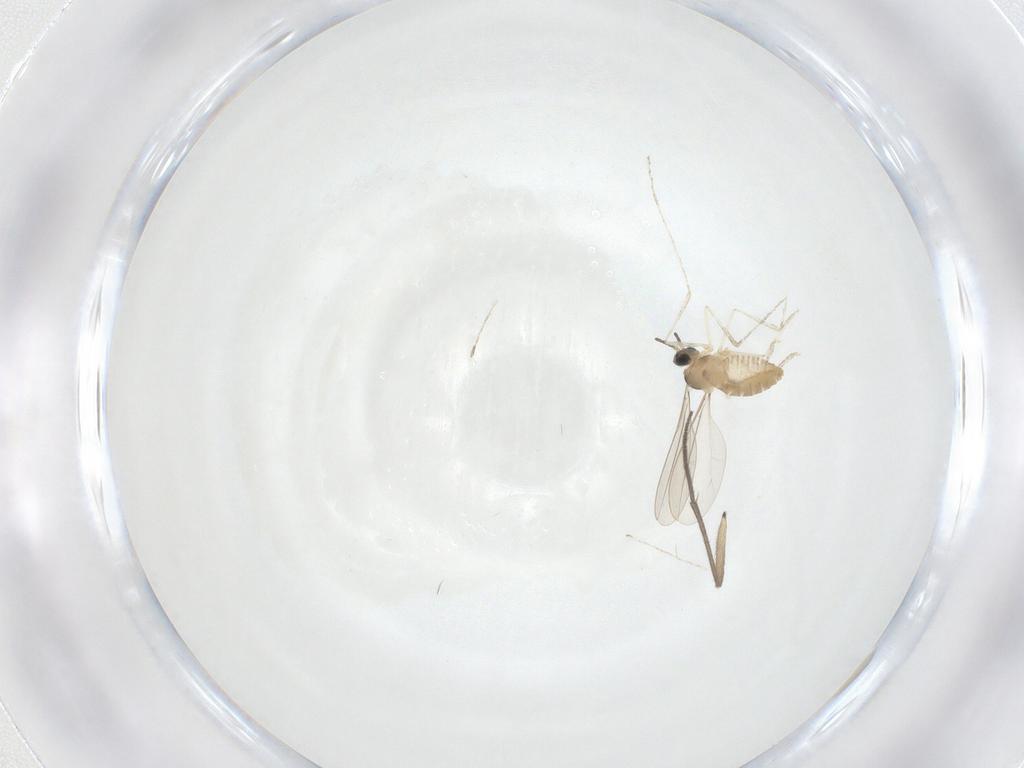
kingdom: Animalia
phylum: Arthropoda
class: Insecta
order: Diptera
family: Cecidomyiidae
